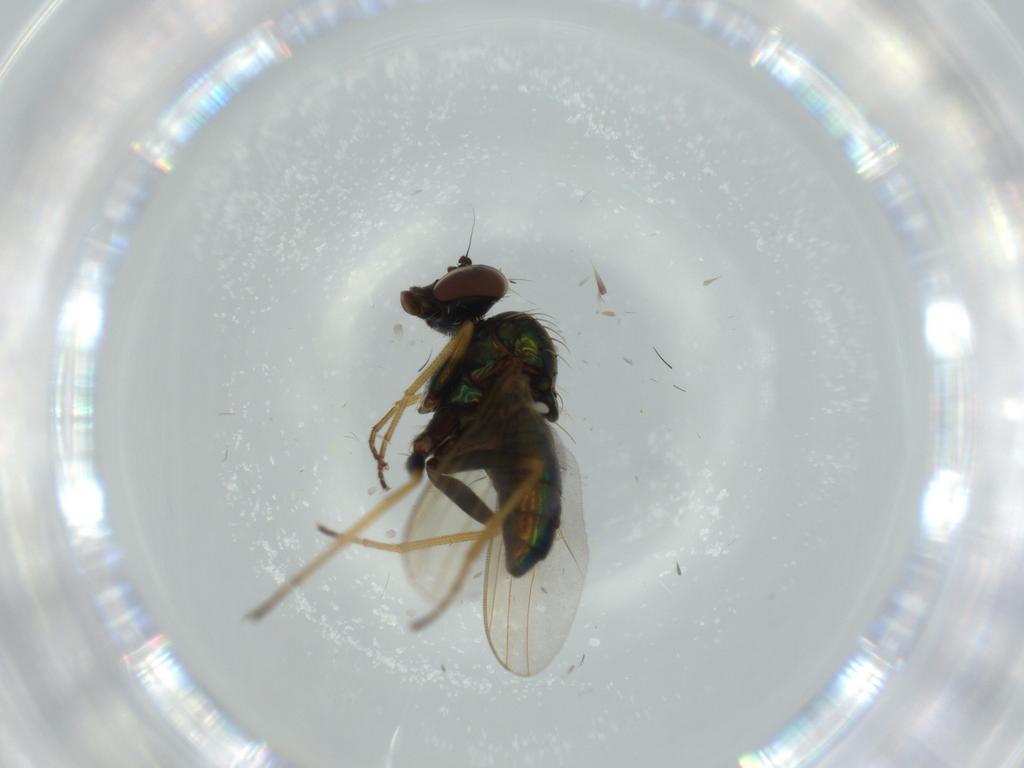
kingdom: Animalia
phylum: Arthropoda
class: Insecta
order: Diptera
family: Dolichopodidae
